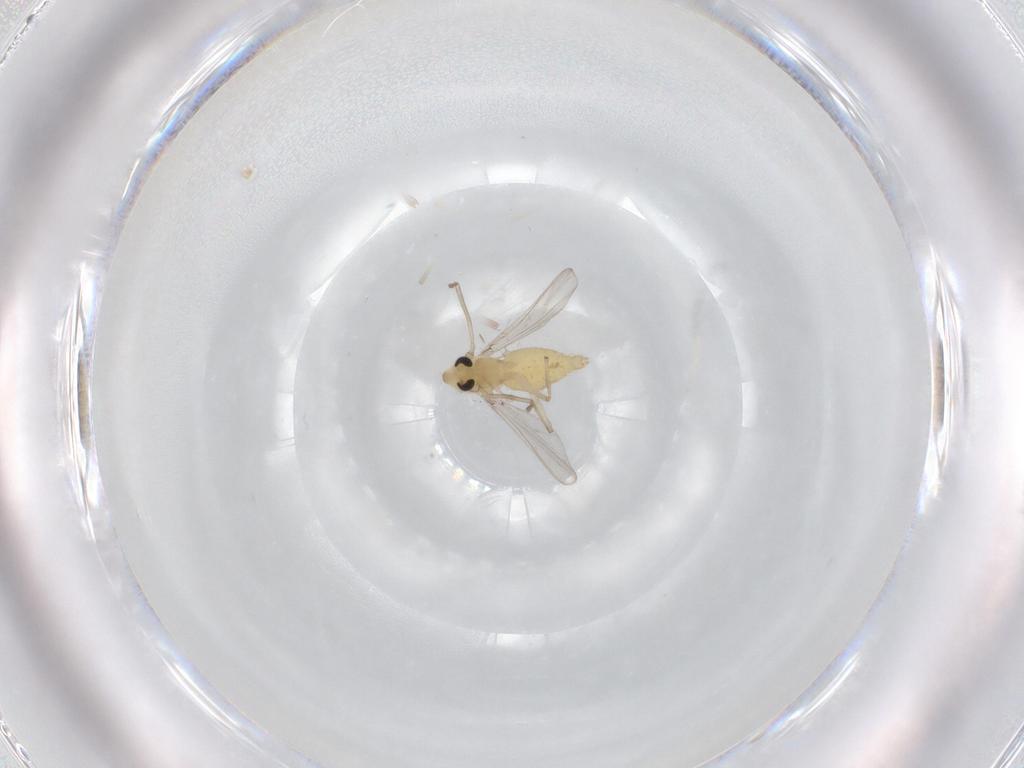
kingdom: Animalia
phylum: Arthropoda
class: Insecta
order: Diptera
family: Chironomidae
